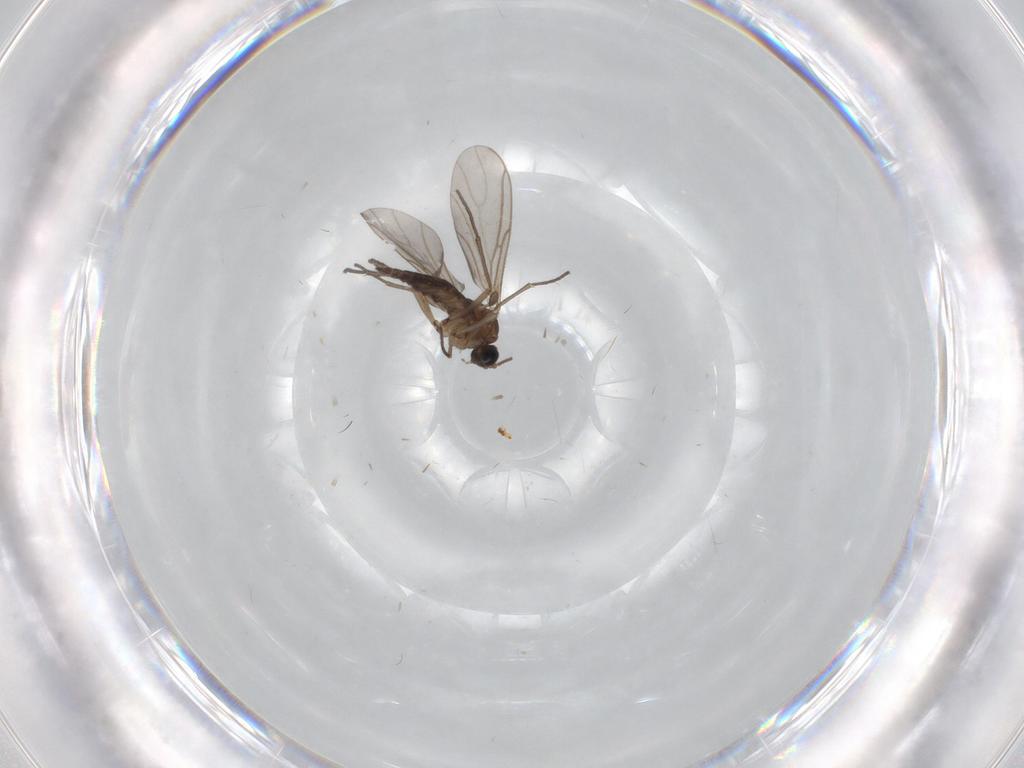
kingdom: Animalia
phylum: Arthropoda
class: Insecta
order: Diptera
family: Sciaridae
